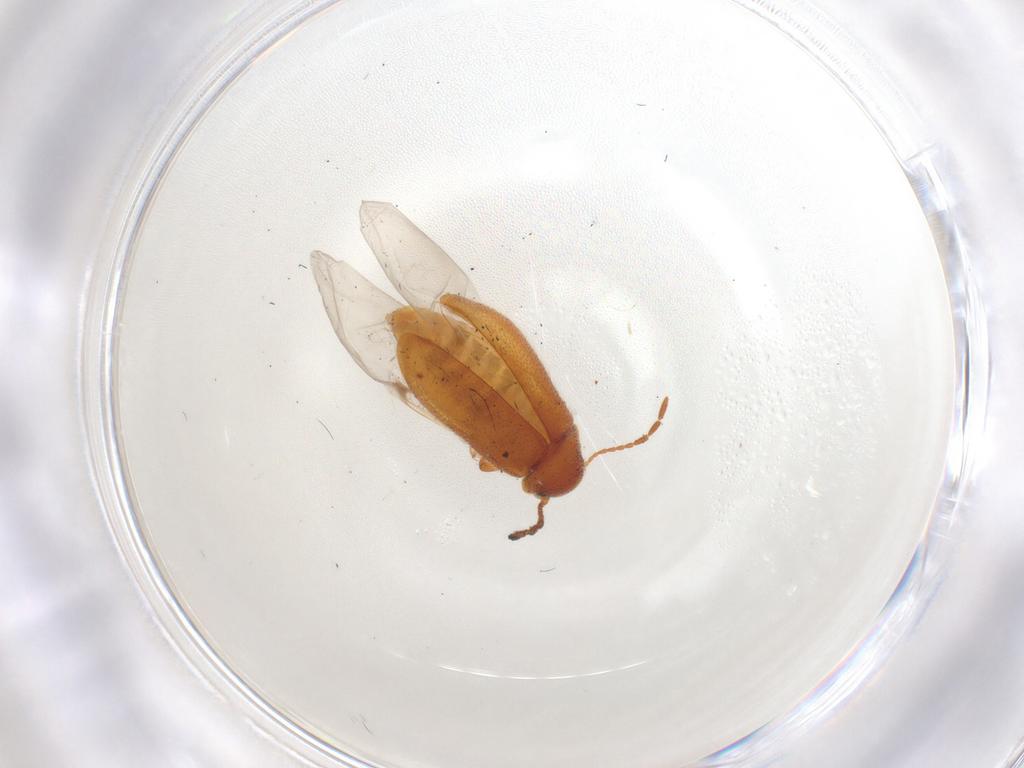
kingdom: Animalia
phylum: Arthropoda
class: Insecta
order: Coleoptera
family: Ptinidae
